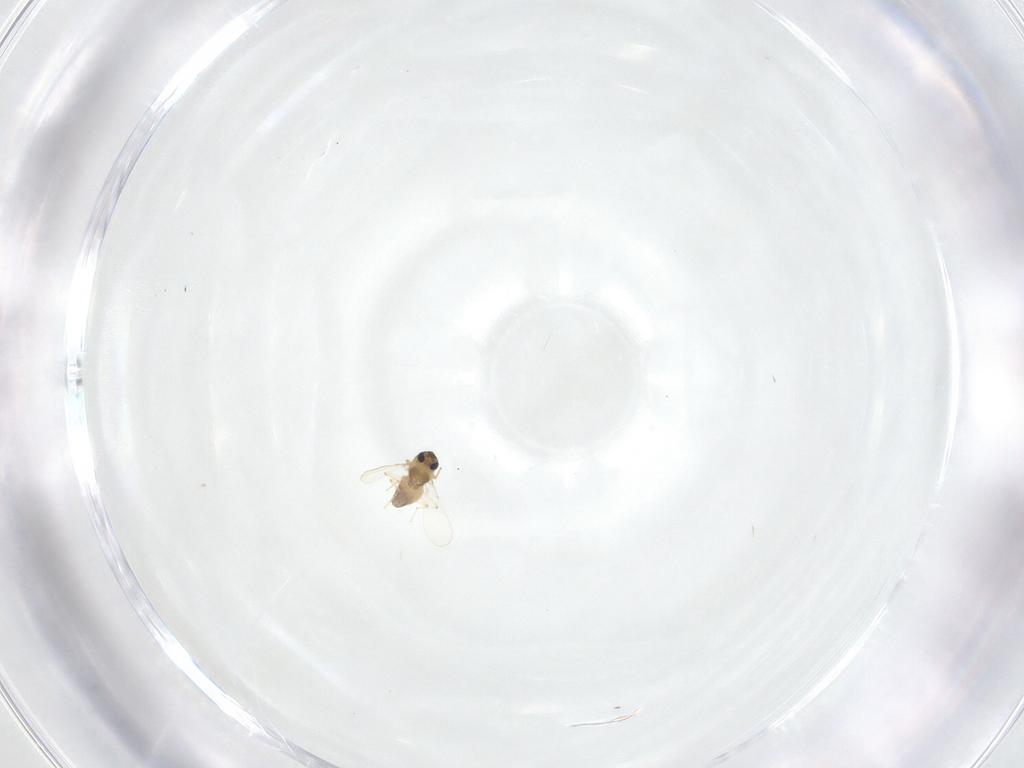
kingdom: Animalia
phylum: Arthropoda
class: Insecta
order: Diptera
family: Chironomidae
